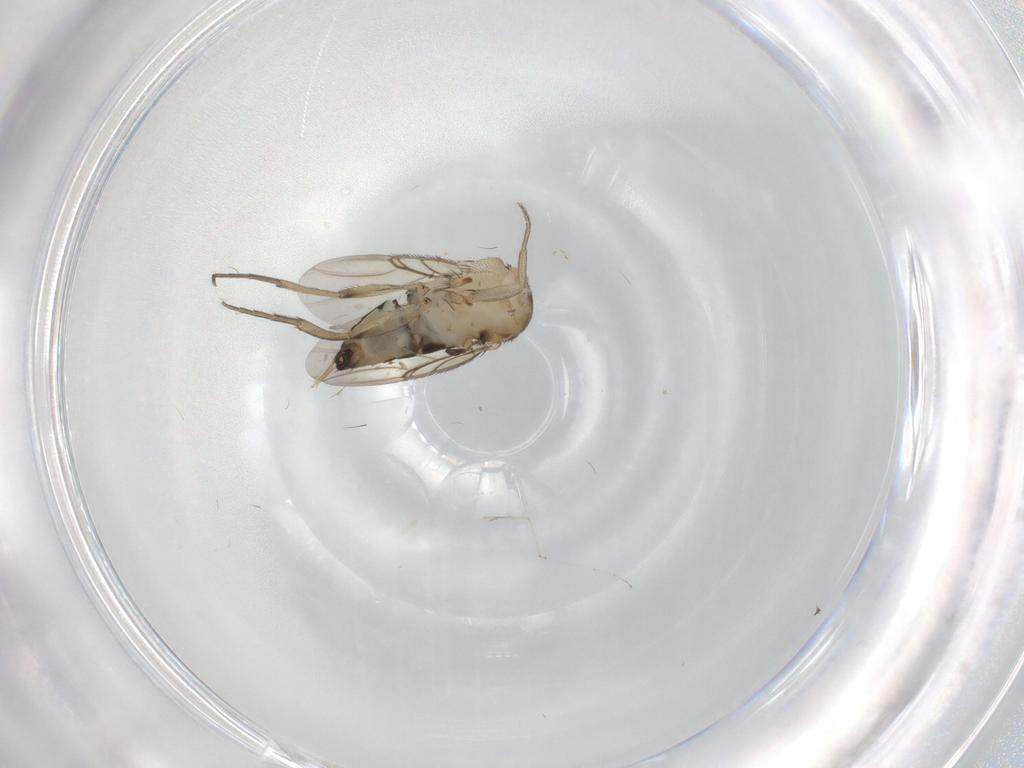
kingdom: Animalia
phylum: Arthropoda
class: Insecta
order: Diptera
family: Phoridae
